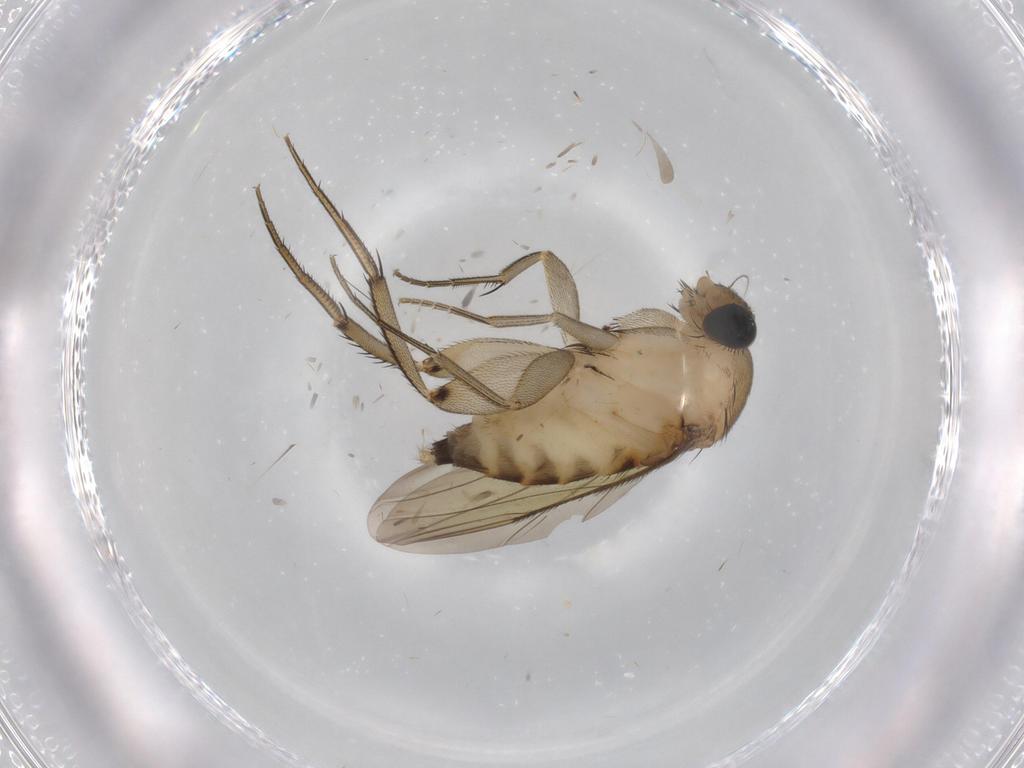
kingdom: Animalia
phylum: Arthropoda
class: Insecta
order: Diptera
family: Phoridae
